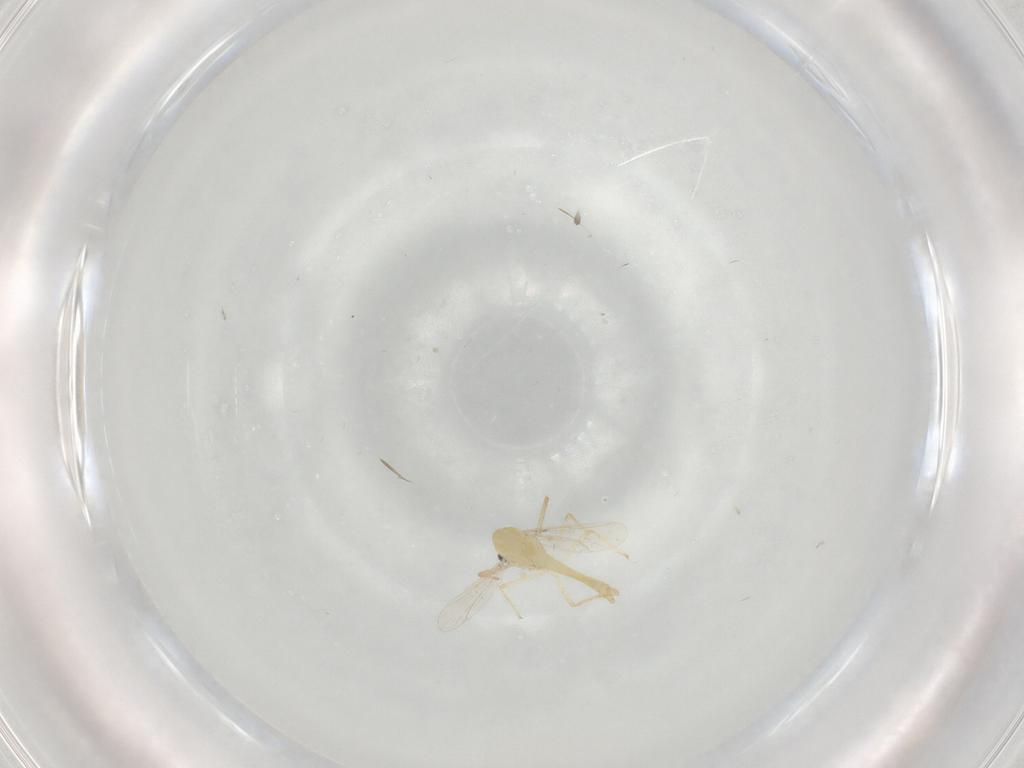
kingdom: Animalia
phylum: Arthropoda
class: Insecta
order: Diptera
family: Chironomidae
